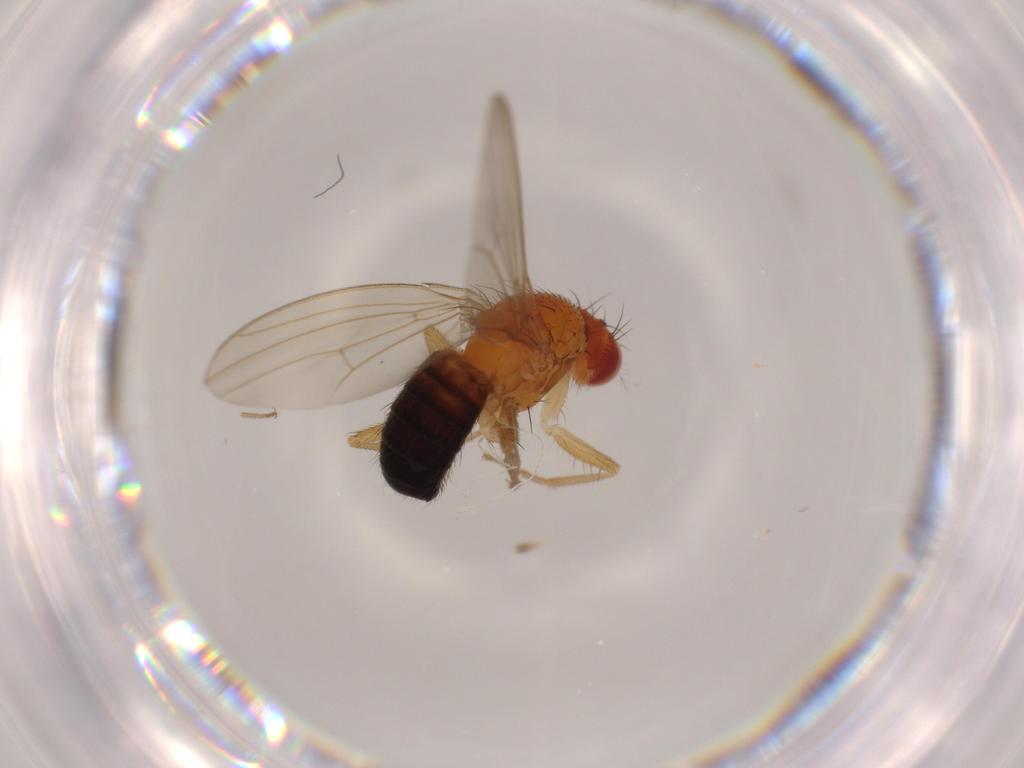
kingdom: Animalia
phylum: Arthropoda
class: Insecta
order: Diptera
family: Drosophilidae
